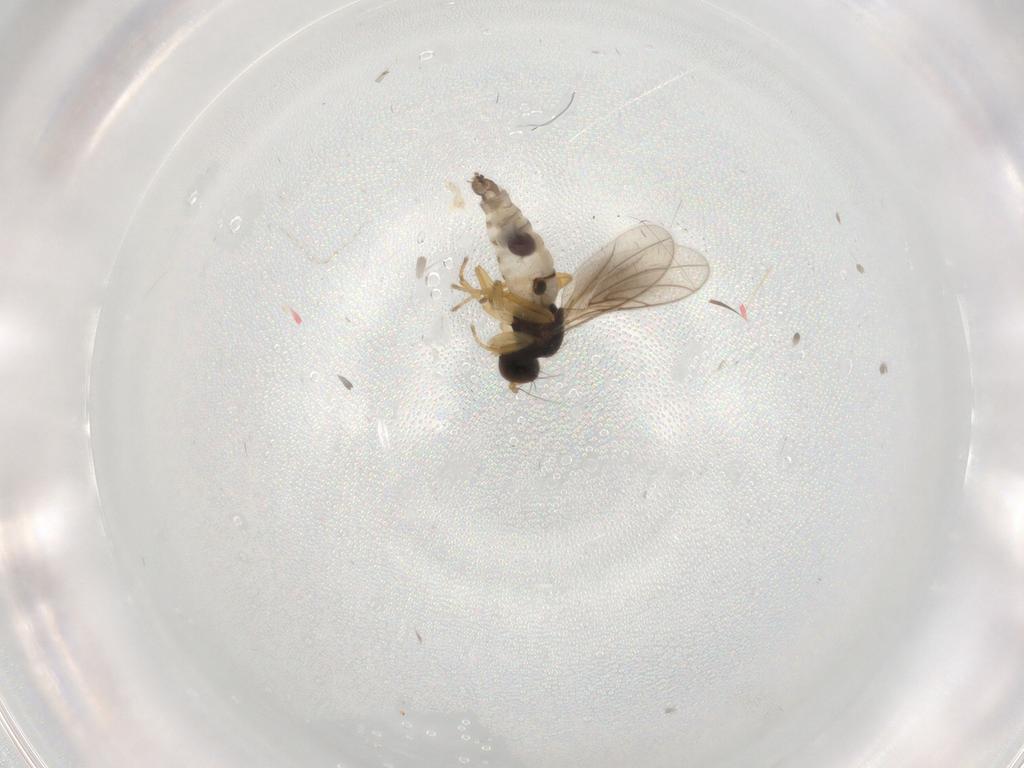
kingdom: Animalia
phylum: Arthropoda
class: Insecta
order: Diptera
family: Hybotidae
